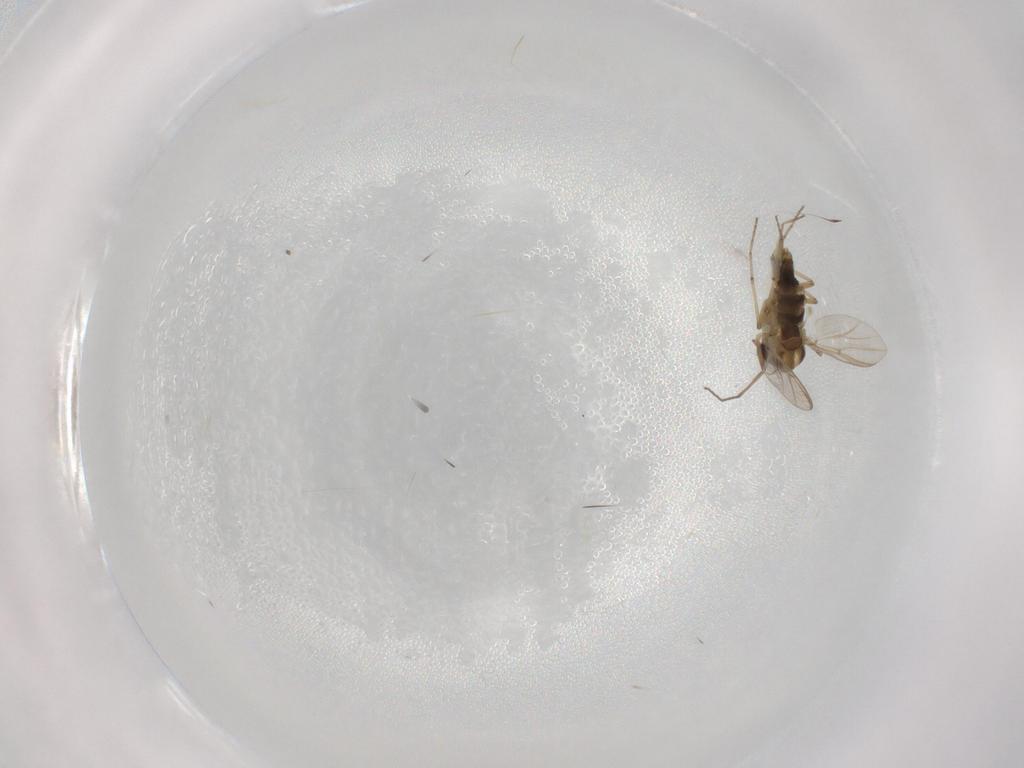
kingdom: Animalia
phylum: Arthropoda
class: Insecta
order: Diptera
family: Chironomidae
